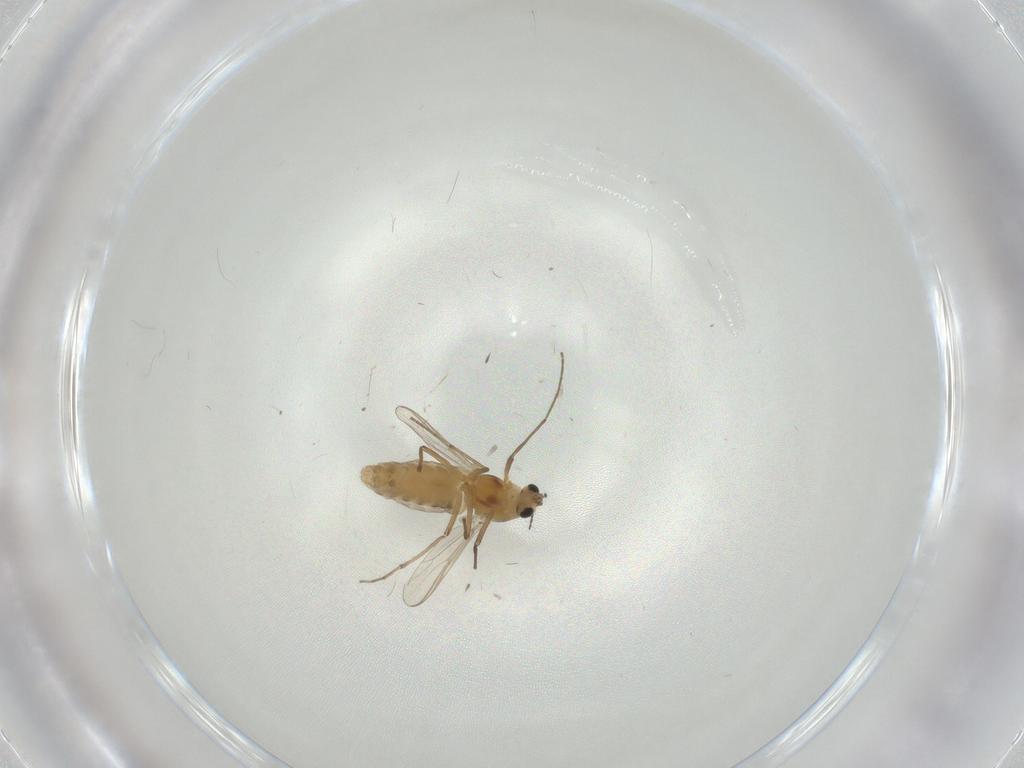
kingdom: Animalia
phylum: Arthropoda
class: Insecta
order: Diptera
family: Chironomidae
